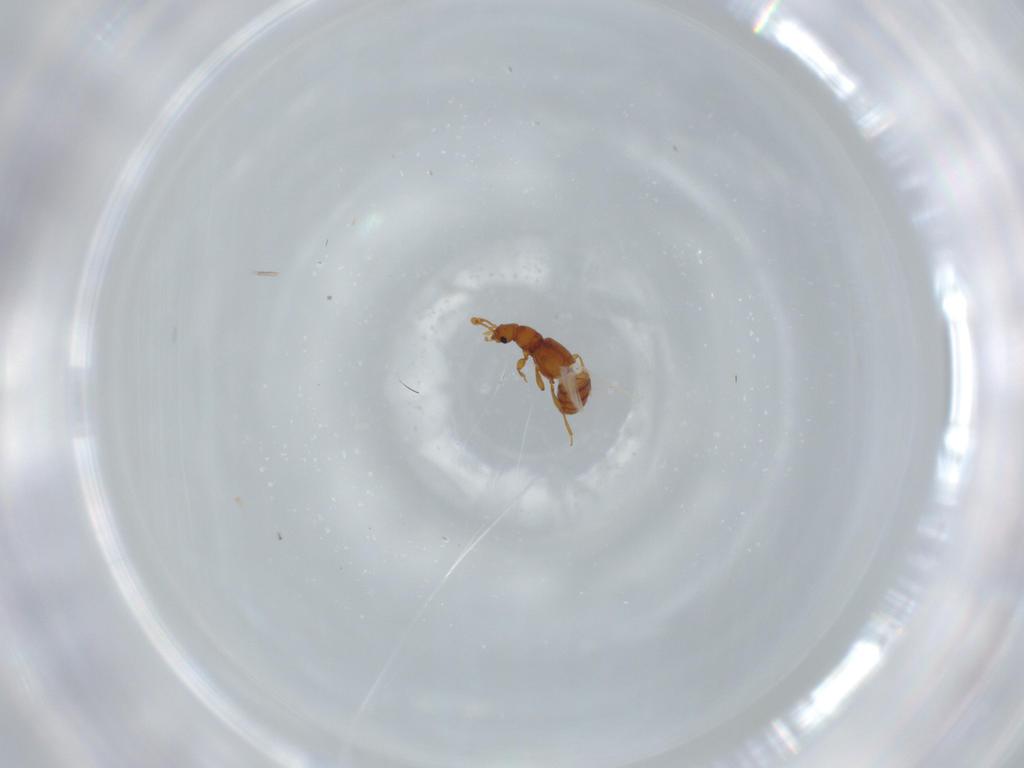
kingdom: Animalia
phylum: Arthropoda
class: Insecta
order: Coleoptera
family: Staphylinidae
